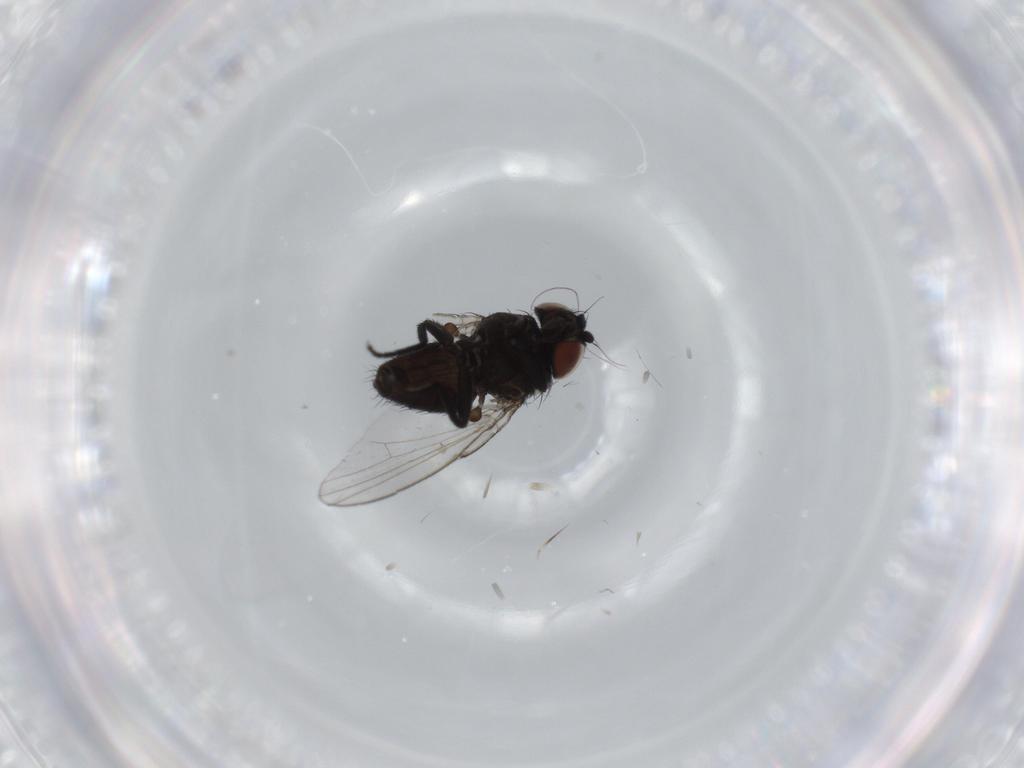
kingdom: Animalia
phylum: Arthropoda
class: Insecta
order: Diptera
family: Milichiidae
